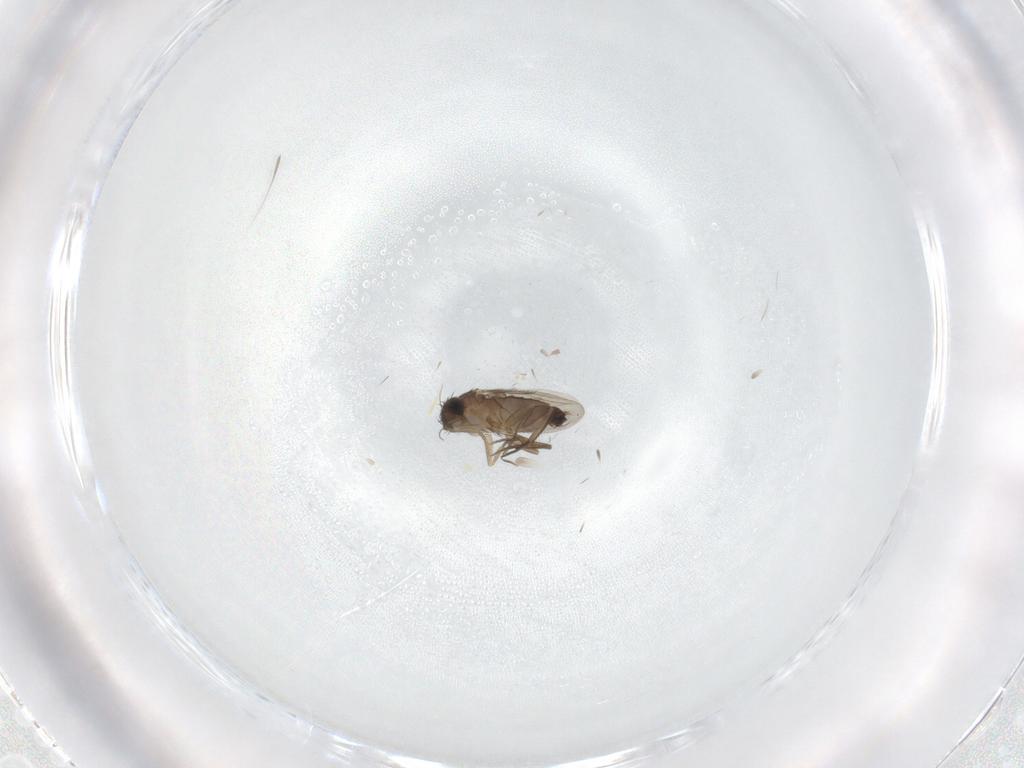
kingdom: Animalia
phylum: Arthropoda
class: Insecta
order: Diptera
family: Phoridae
